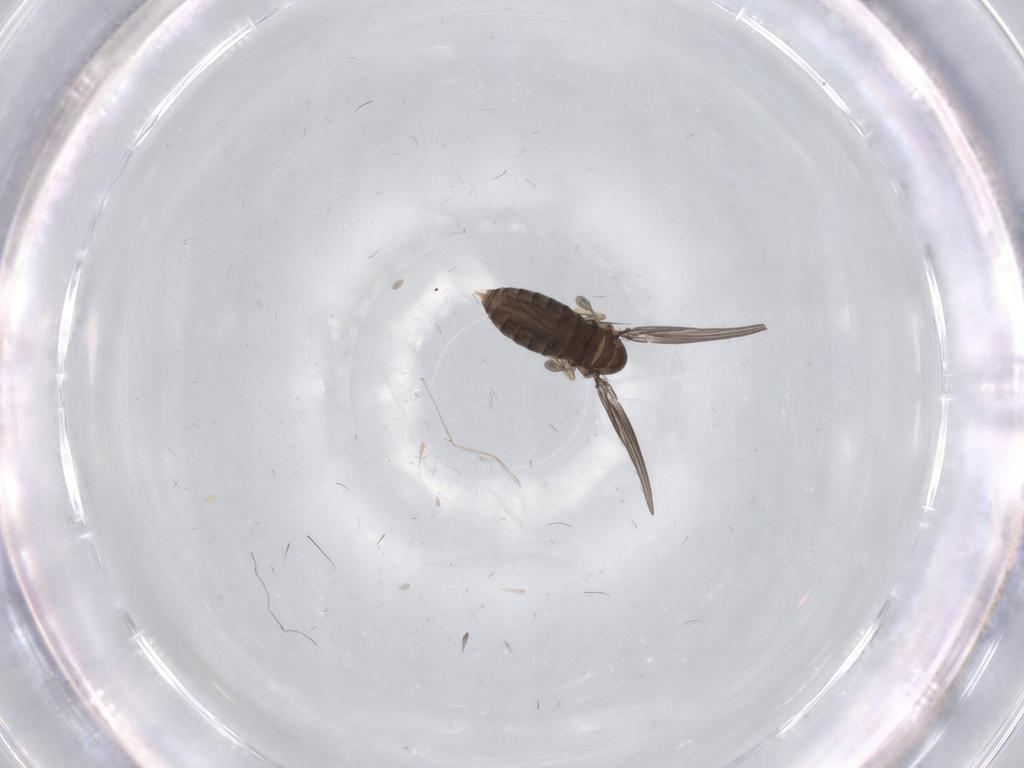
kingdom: Animalia
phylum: Arthropoda
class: Insecta
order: Diptera
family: Psychodidae
